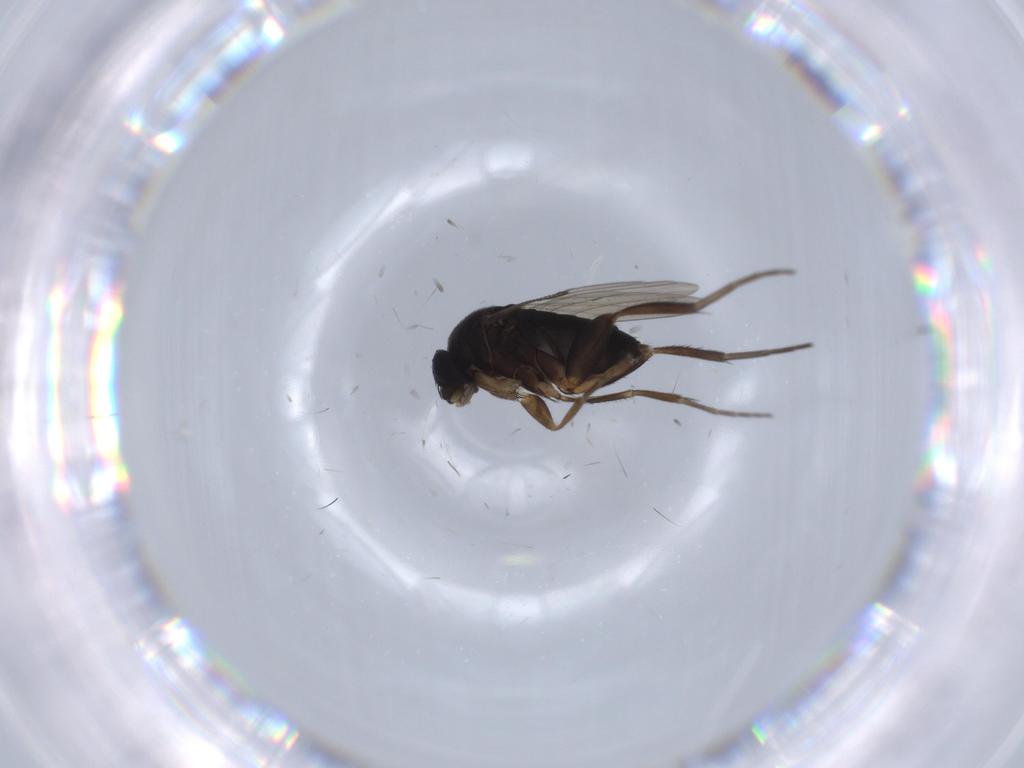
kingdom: Animalia
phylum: Arthropoda
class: Insecta
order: Diptera
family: Phoridae
